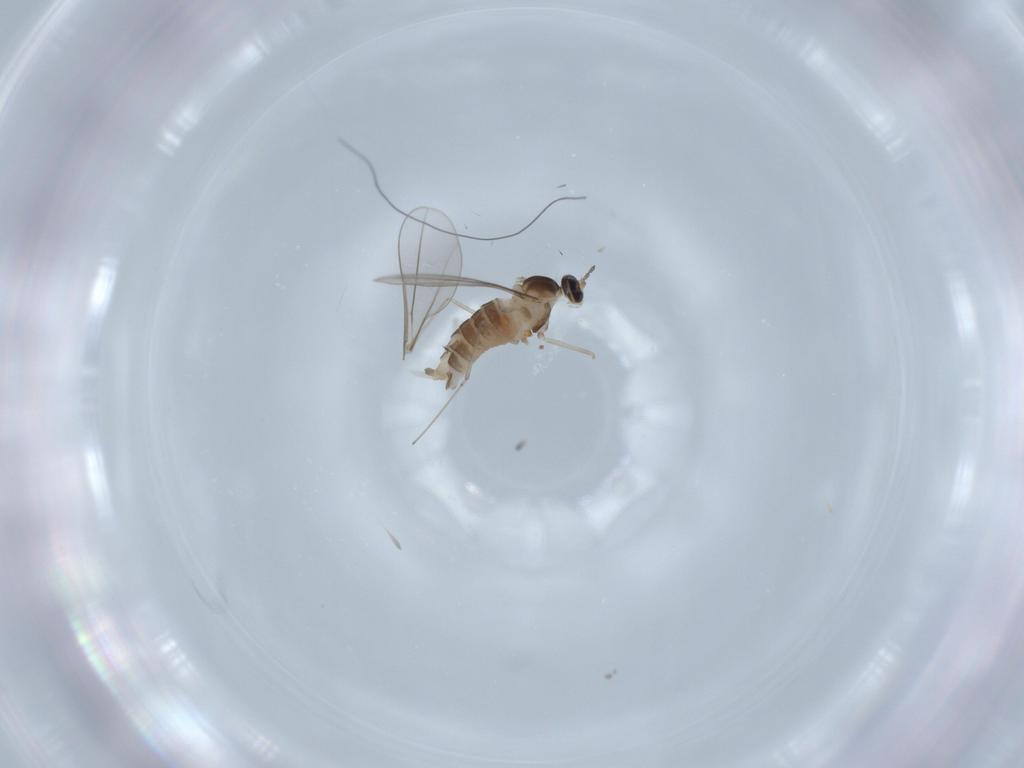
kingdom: Animalia
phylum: Arthropoda
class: Insecta
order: Diptera
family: Cecidomyiidae
